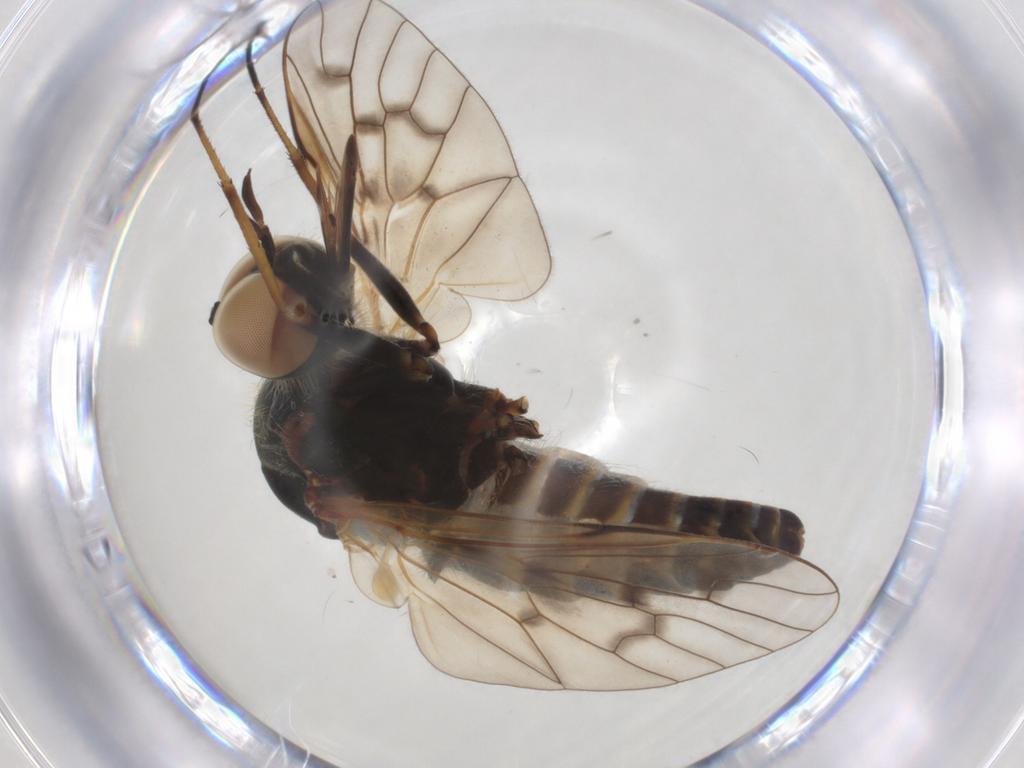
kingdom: Animalia
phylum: Arthropoda
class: Insecta
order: Diptera
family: Bombyliidae
